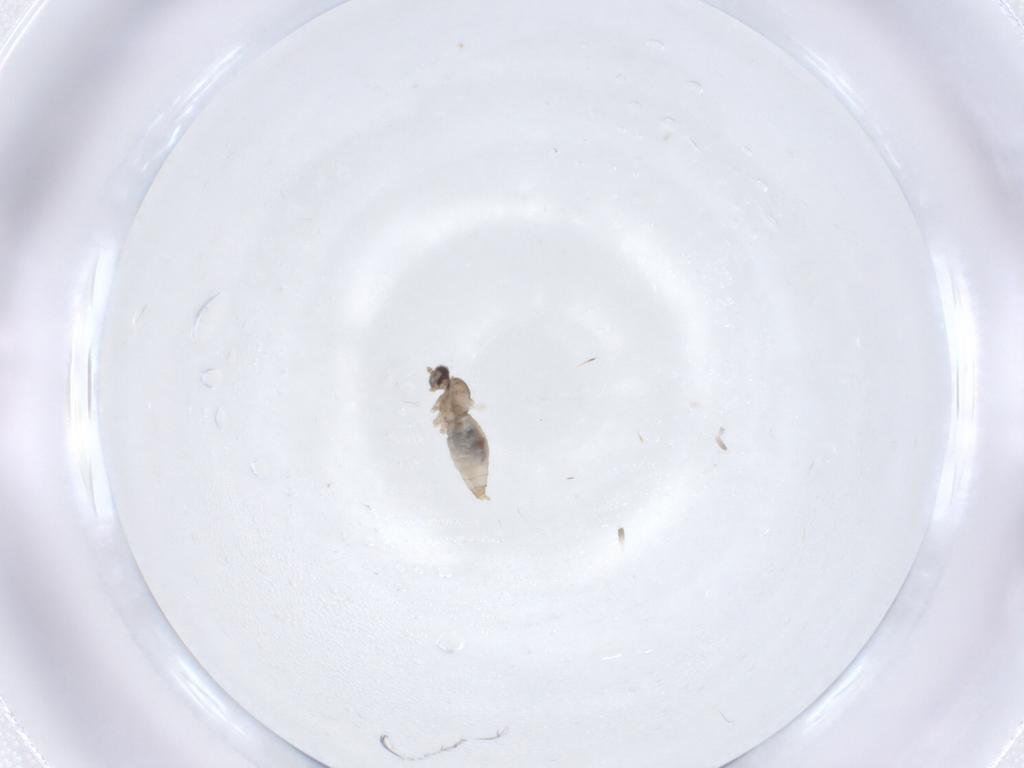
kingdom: Animalia
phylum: Arthropoda
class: Insecta
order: Diptera
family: Cecidomyiidae
